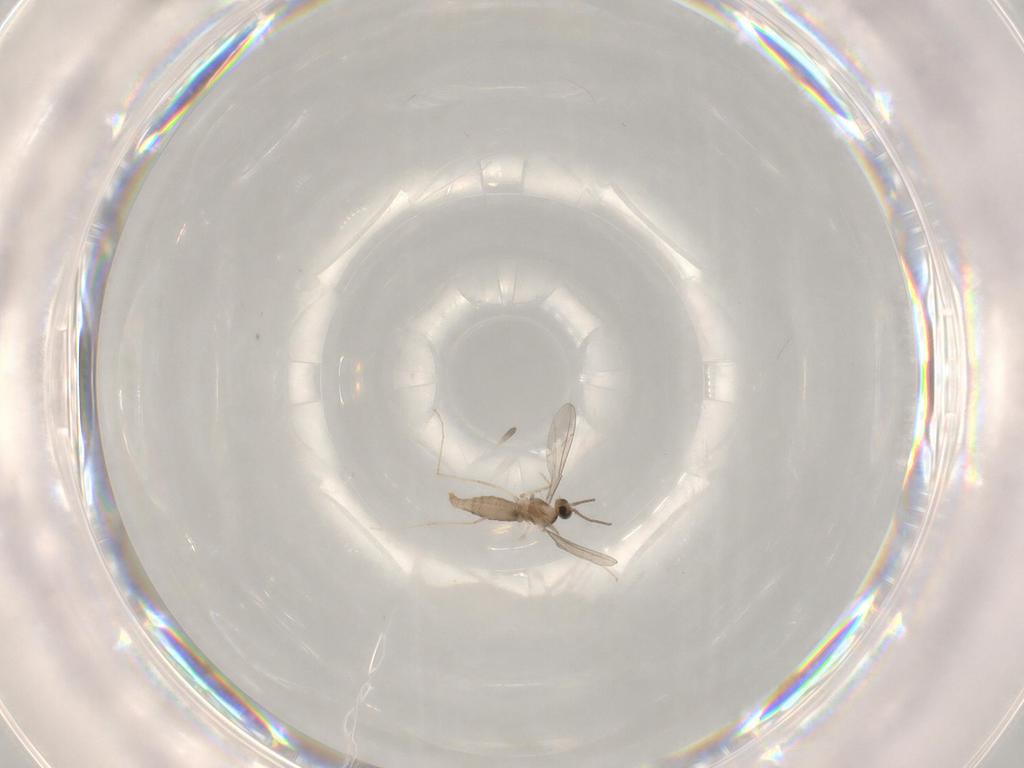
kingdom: Animalia
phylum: Arthropoda
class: Insecta
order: Diptera
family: Cecidomyiidae
